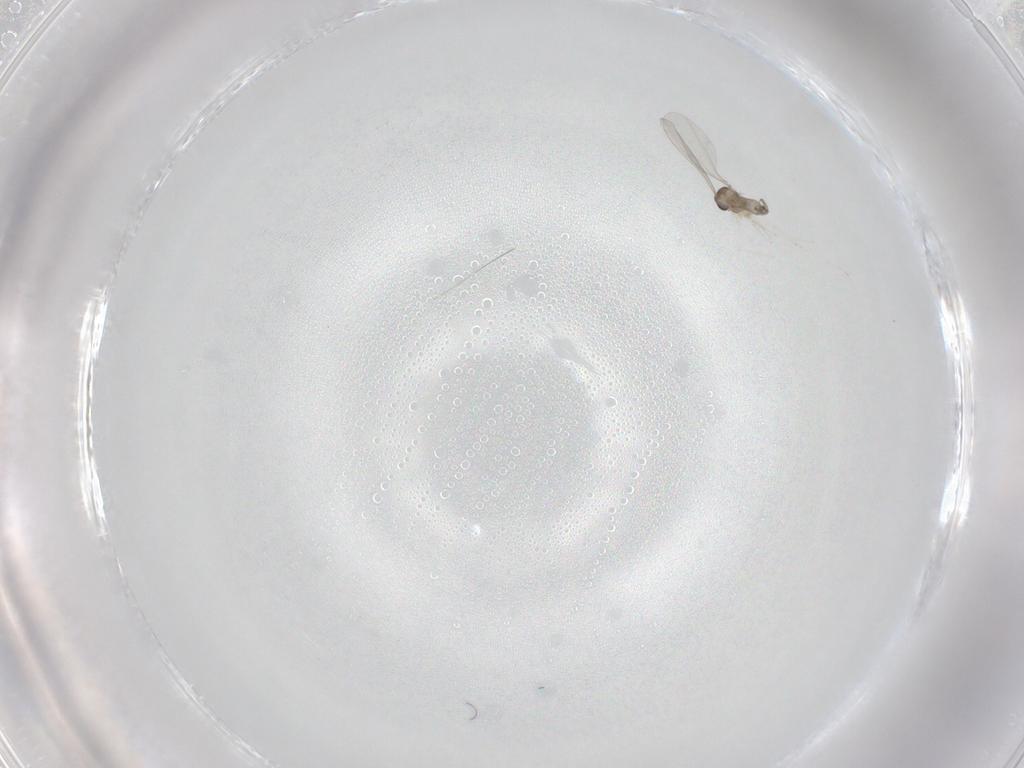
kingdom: Animalia
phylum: Arthropoda
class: Insecta
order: Diptera
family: Cecidomyiidae
